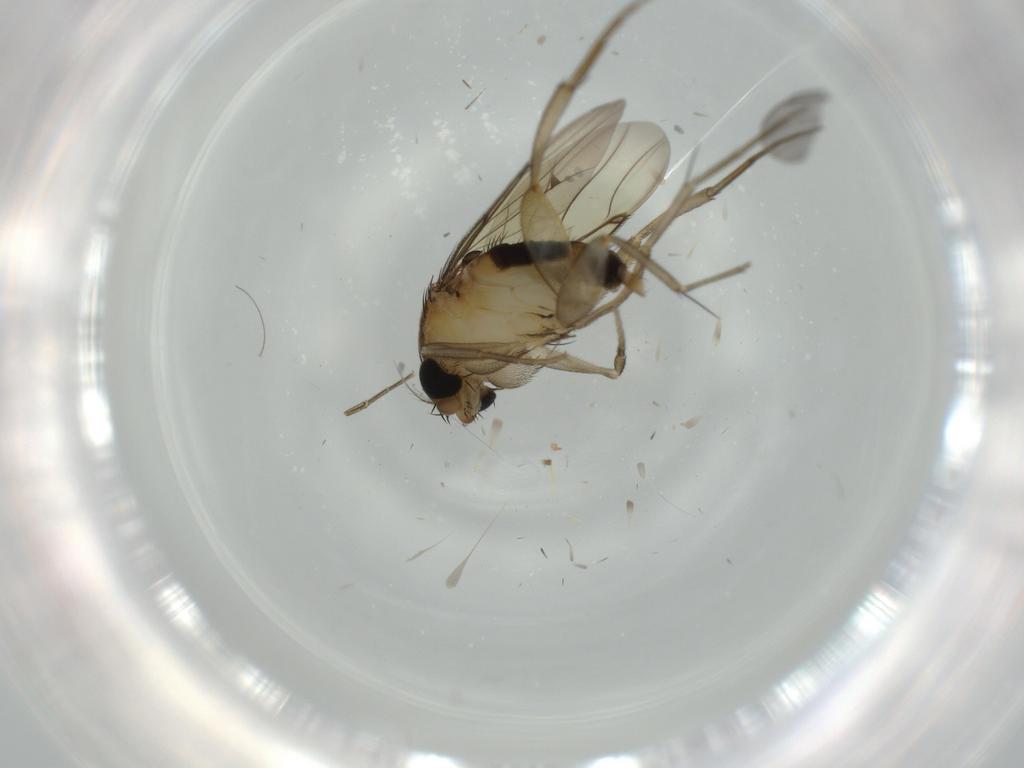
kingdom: Animalia
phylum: Arthropoda
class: Insecta
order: Diptera
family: Phoridae
